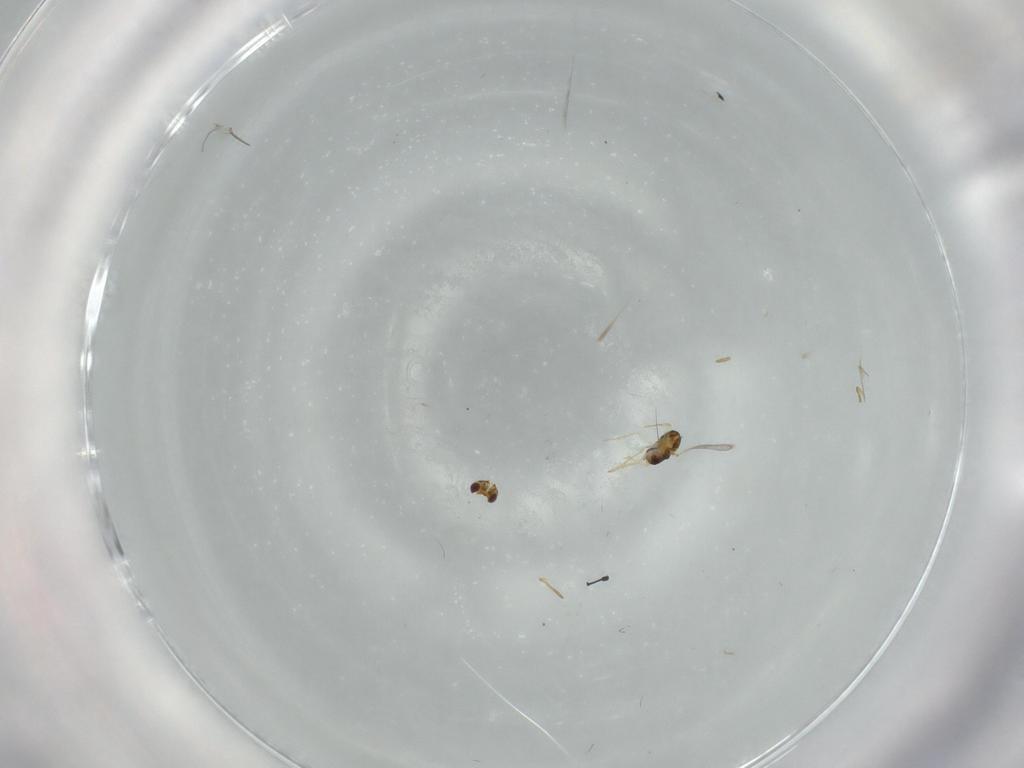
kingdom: Animalia
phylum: Arthropoda
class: Insecta
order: Hymenoptera
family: Aphelinidae
